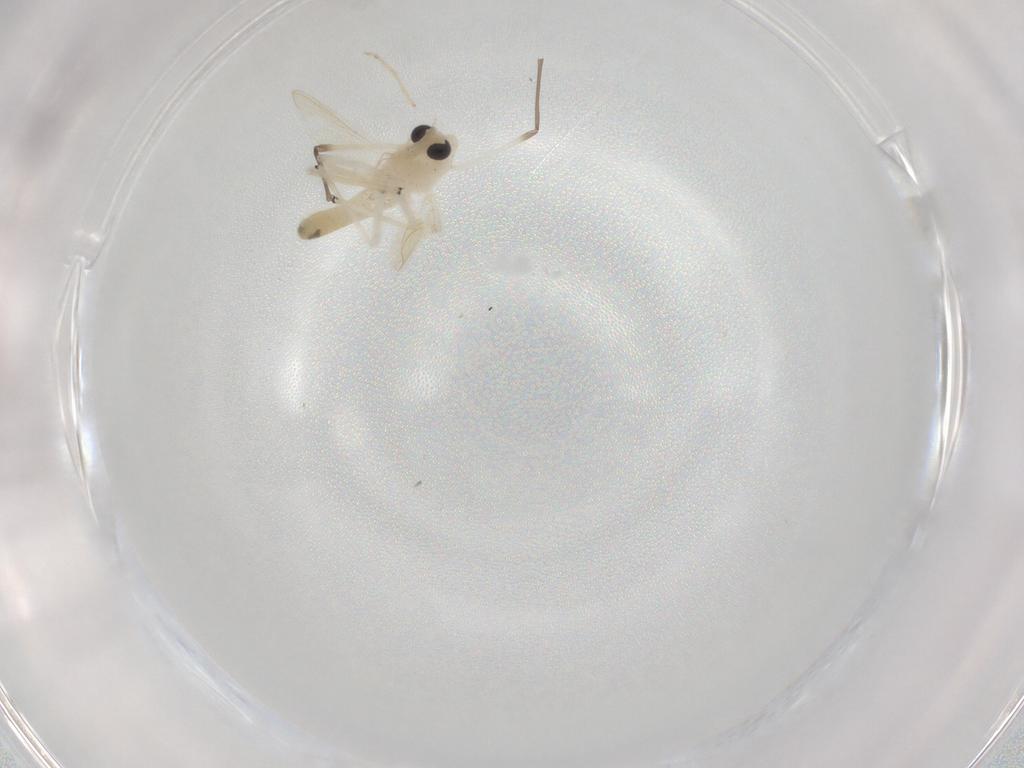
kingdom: Animalia
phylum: Arthropoda
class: Insecta
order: Diptera
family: Chironomidae
